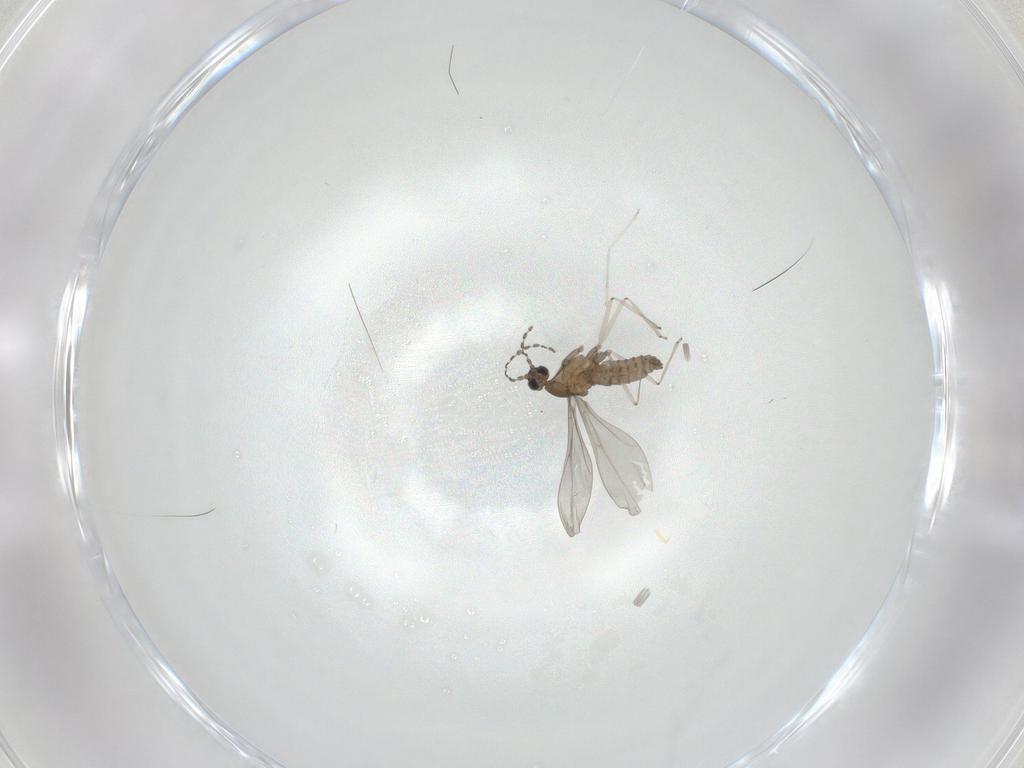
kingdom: Animalia
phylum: Arthropoda
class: Insecta
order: Diptera
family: Cecidomyiidae
